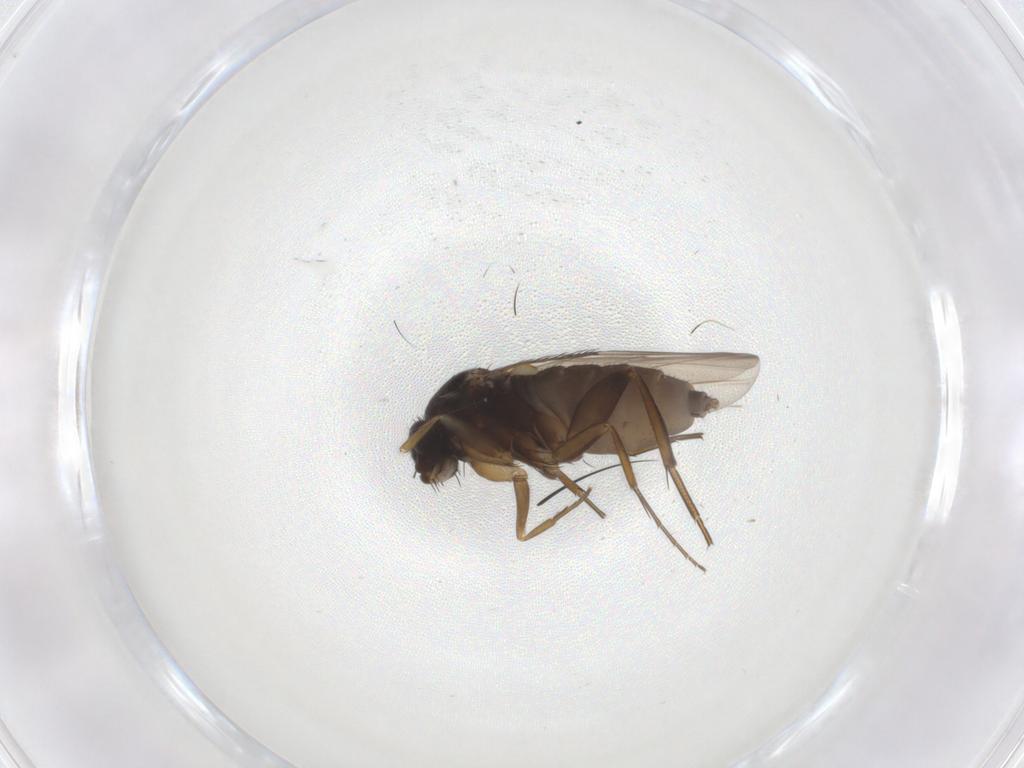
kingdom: Animalia
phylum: Arthropoda
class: Insecta
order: Diptera
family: Phoridae
